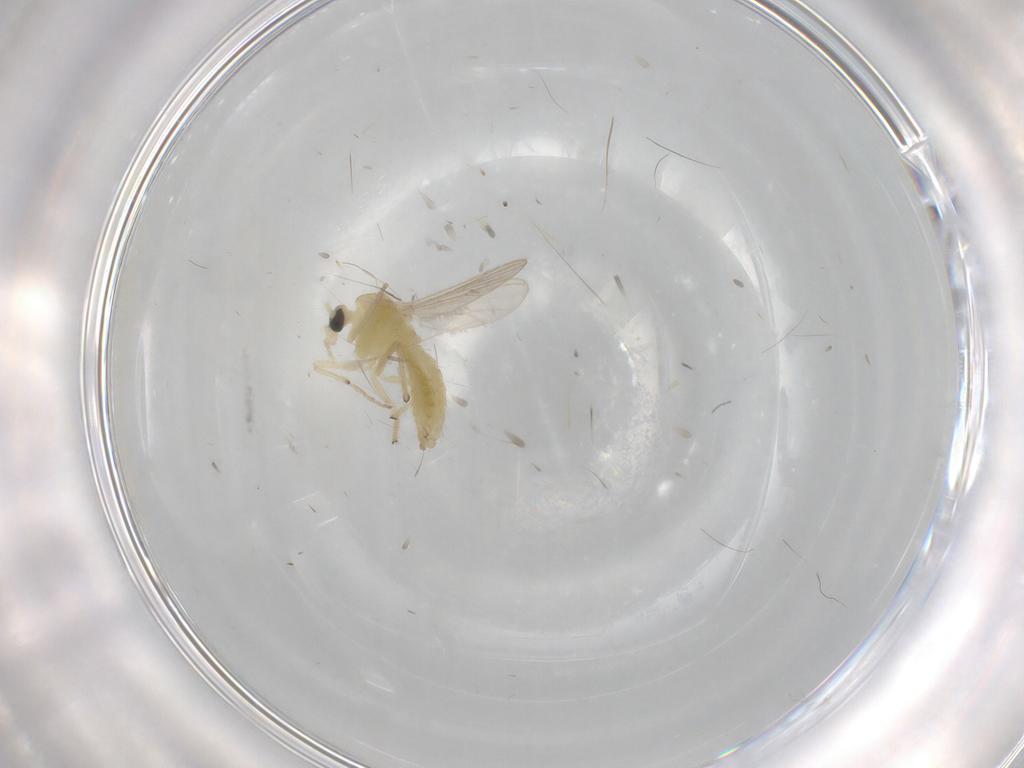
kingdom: Animalia
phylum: Arthropoda
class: Insecta
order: Diptera
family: Chironomidae
